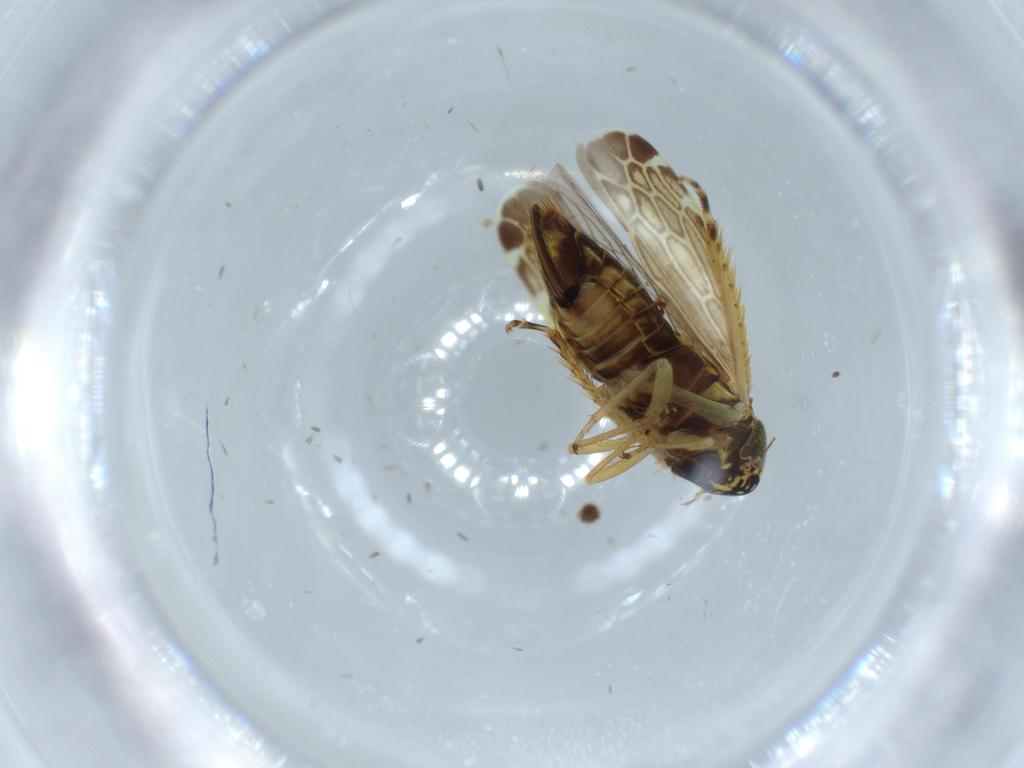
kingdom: Animalia
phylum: Arthropoda
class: Insecta
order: Hemiptera
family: Cicadellidae
